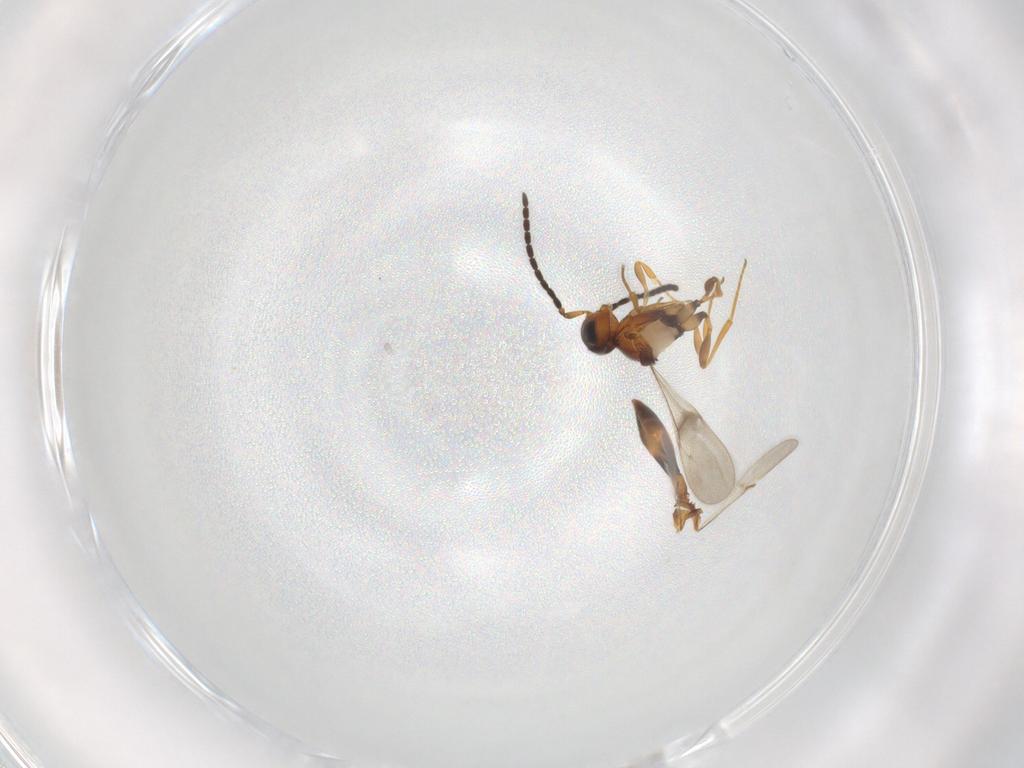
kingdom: Animalia
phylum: Arthropoda
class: Insecta
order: Hymenoptera
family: Scelionidae
